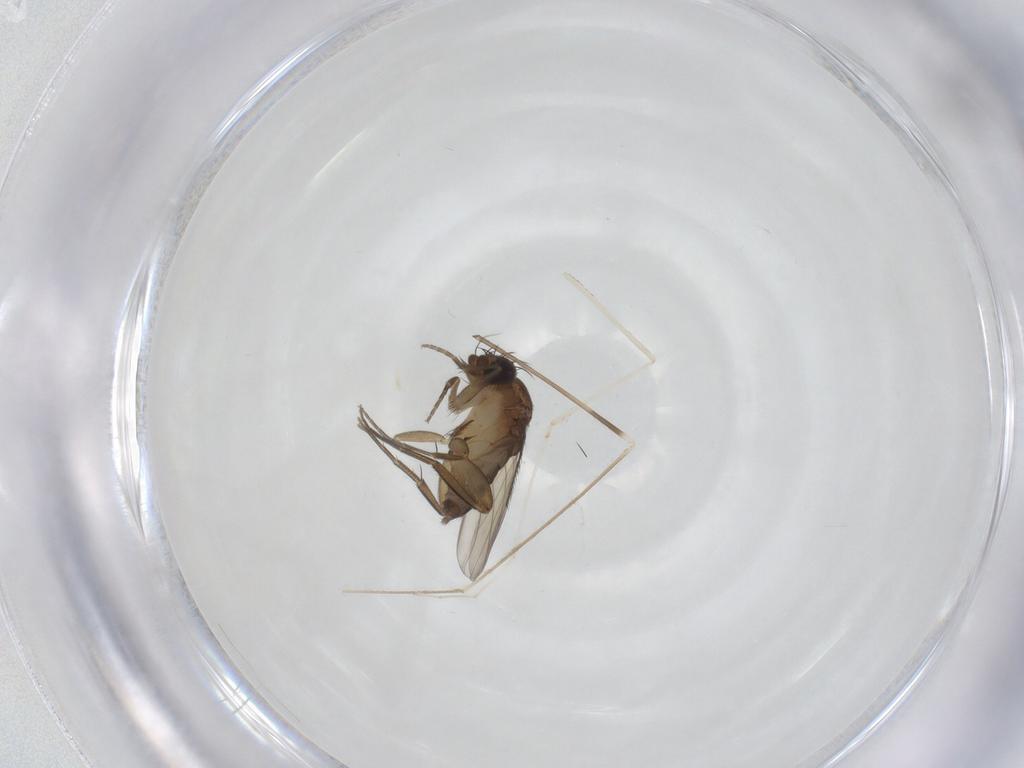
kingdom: Animalia
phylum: Arthropoda
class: Insecta
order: Diptera
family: Phoridae
